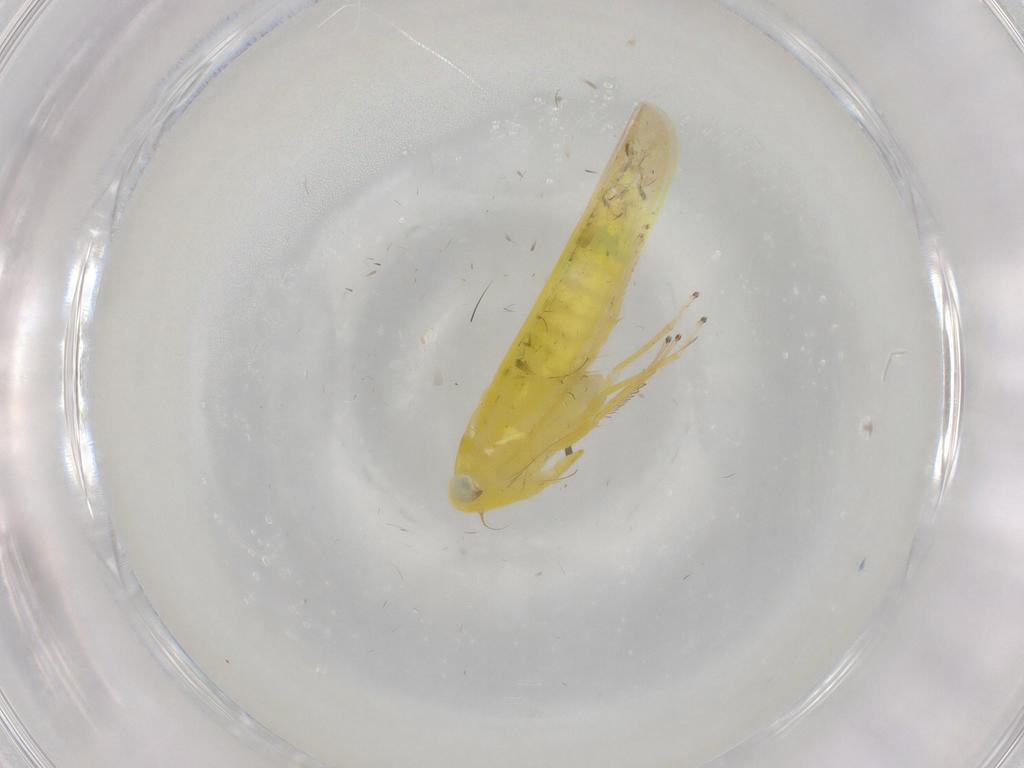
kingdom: Animalia
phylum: Arthropoda
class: Insecta
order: Hemiptera
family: Cicadellidae
